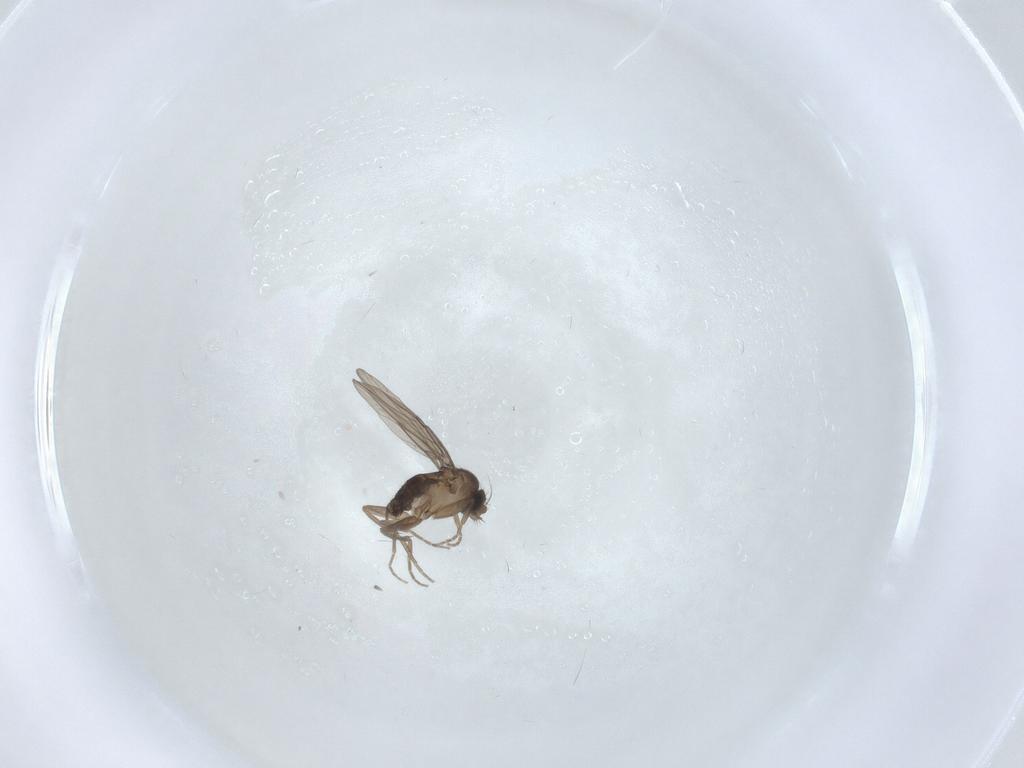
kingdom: Animalia
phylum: Arthropoda
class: Insecta
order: Diptera
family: Phoridae
